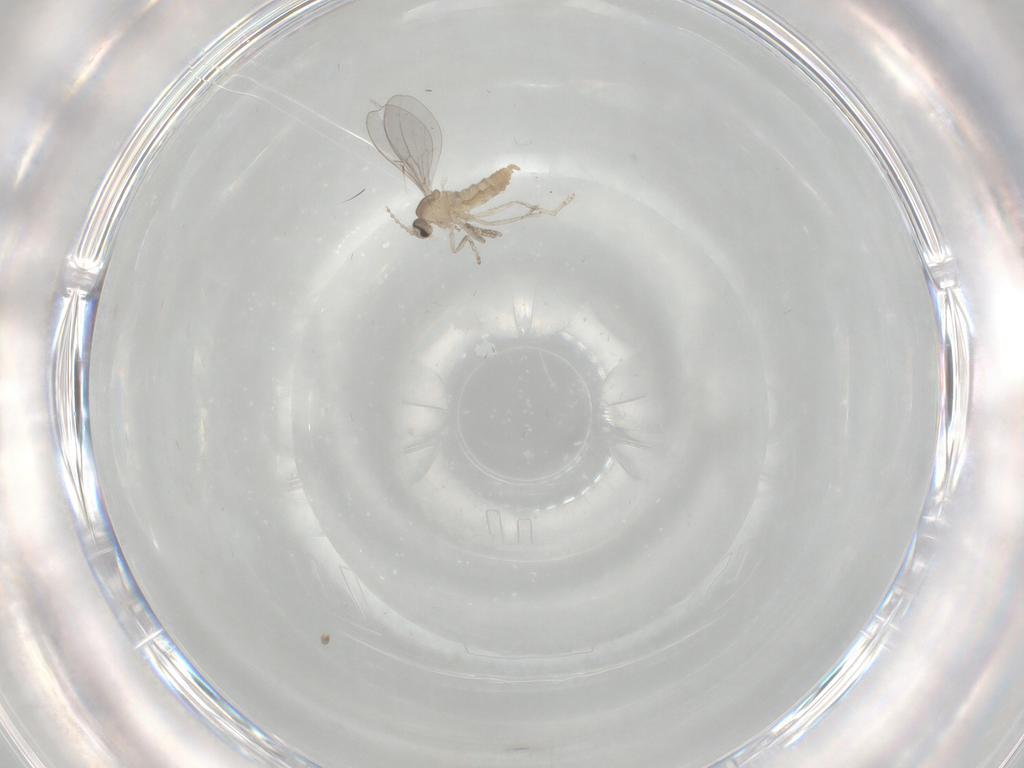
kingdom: Animalia
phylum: Arthropoda
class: Insecta
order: Diptera
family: Cecidomyiidae
